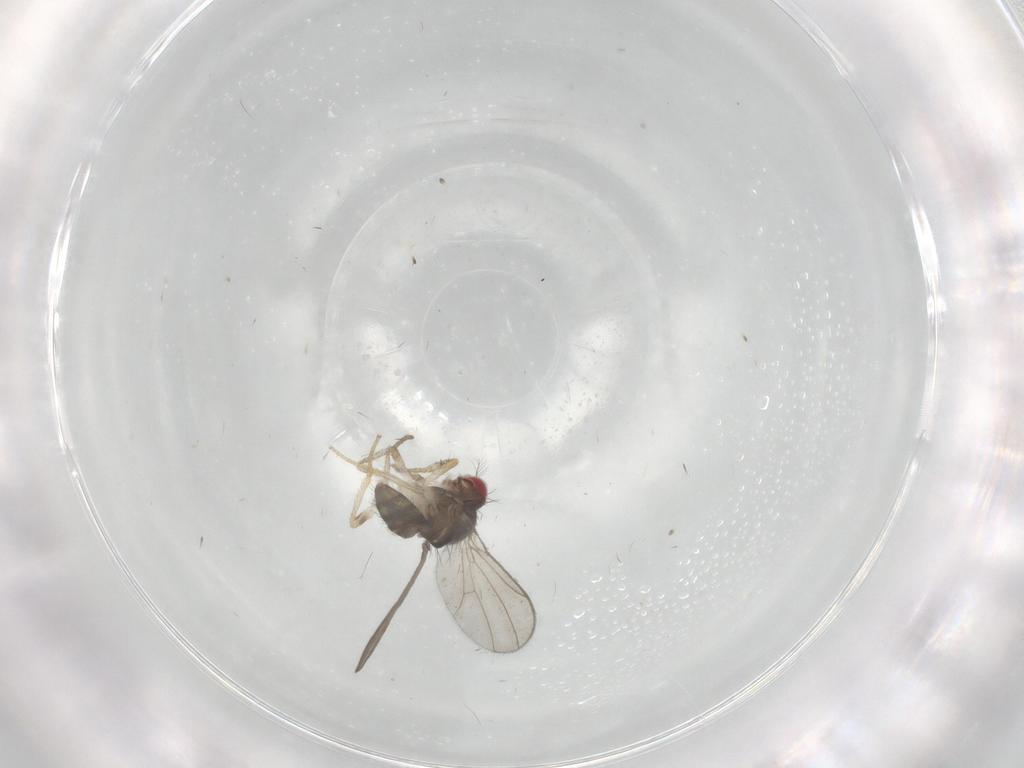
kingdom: Animalia
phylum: Arthropoda
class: Insecta
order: Diptera
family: Drosophilidae
